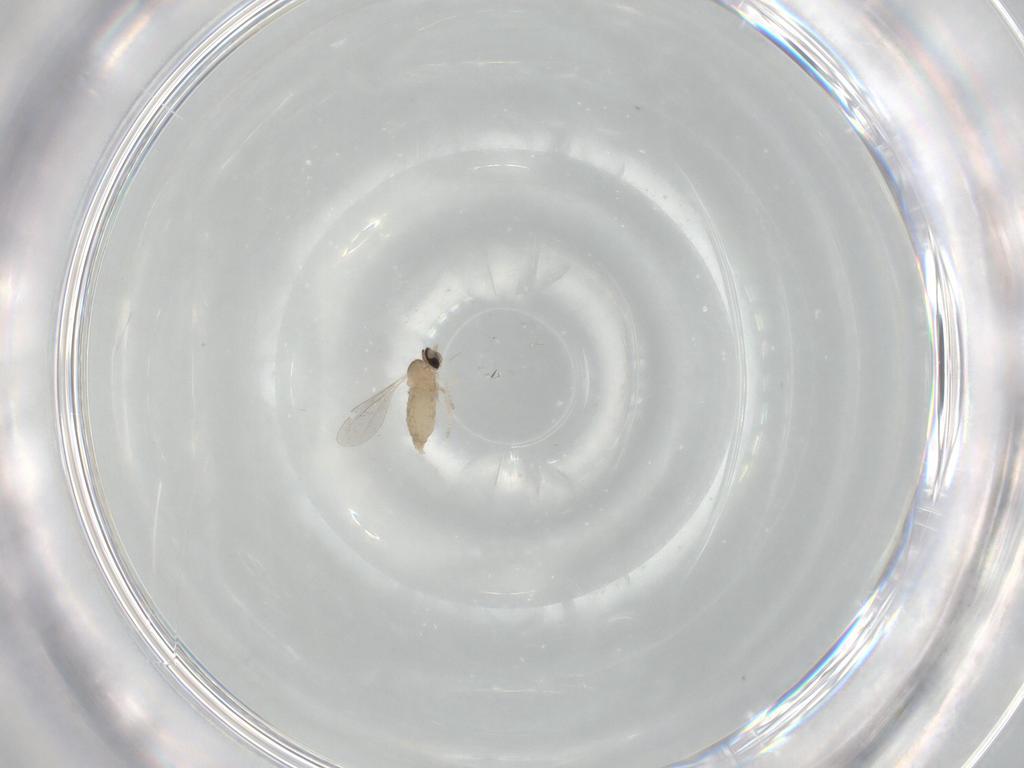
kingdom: Animalia
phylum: Arthropoda
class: Insecta
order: Diptera
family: Cecidomyiidae
